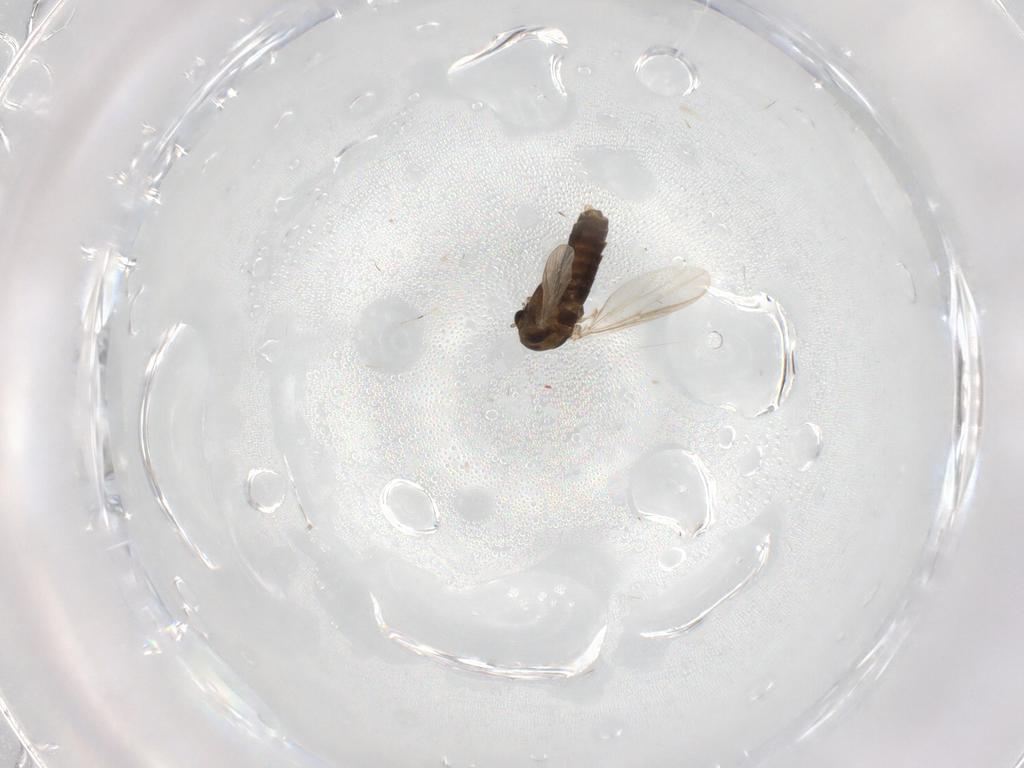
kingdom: Animalia
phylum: Arthropoda
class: Insecta
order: Diptera
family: Chironomidae
